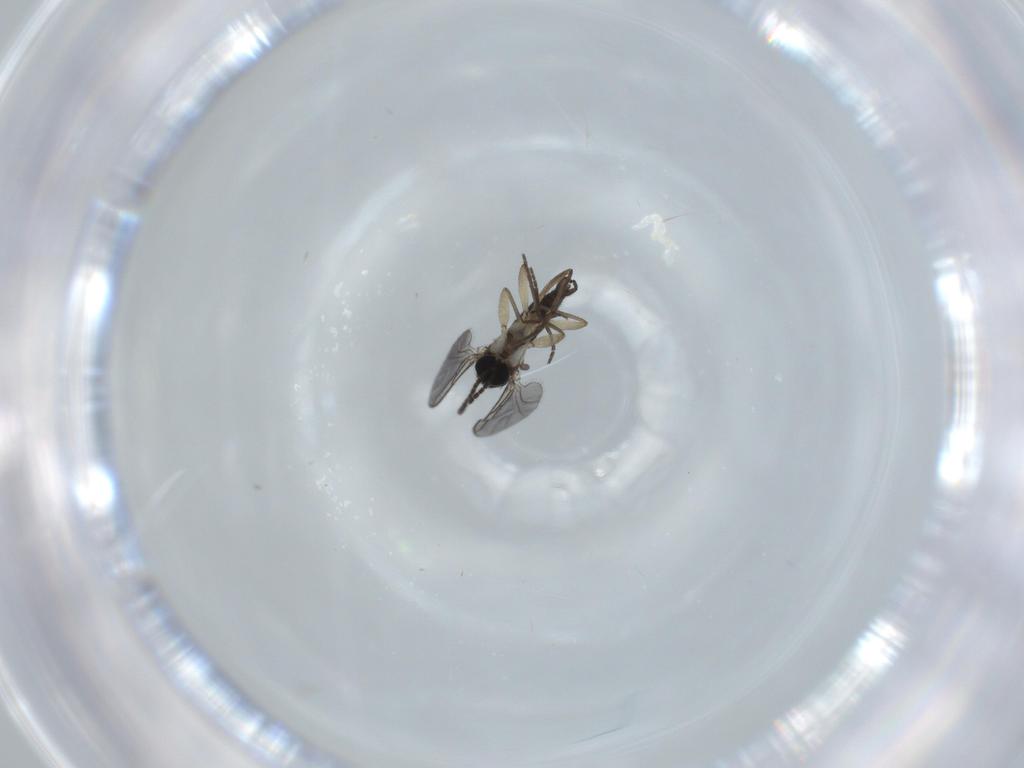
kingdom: Animalia
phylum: Arthropoda
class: Insecta
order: Diptera
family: Sciaridae
